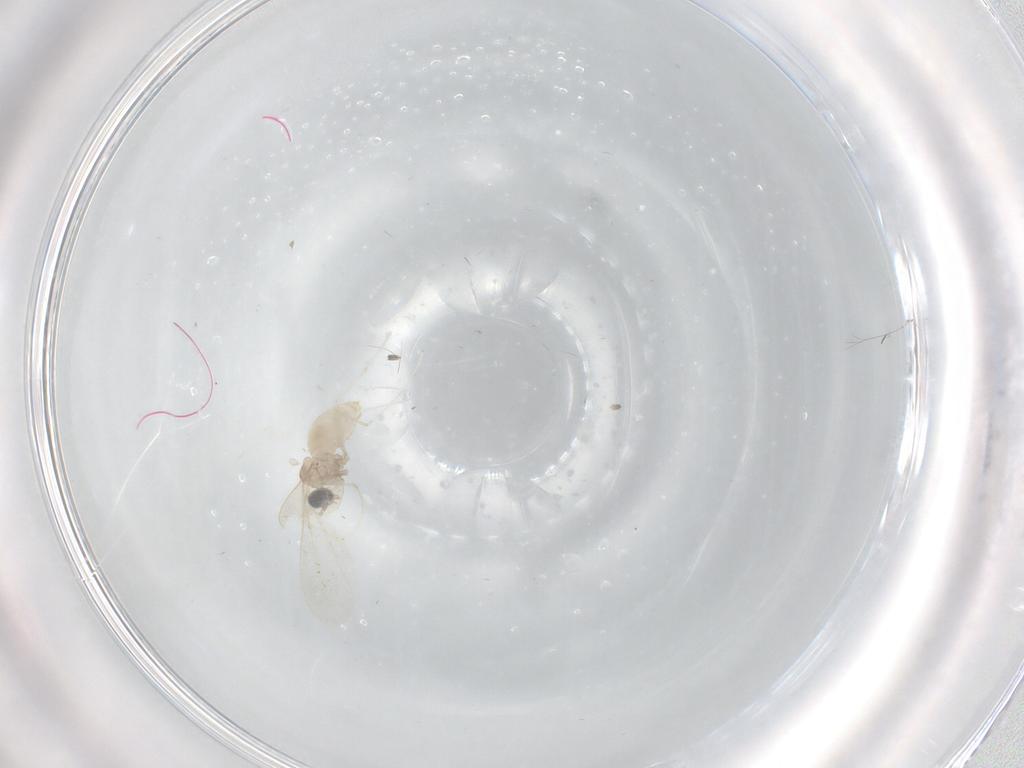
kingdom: Animalia
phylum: Arthropoda
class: Insecta
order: Diptera
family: Cecidomyiidae
